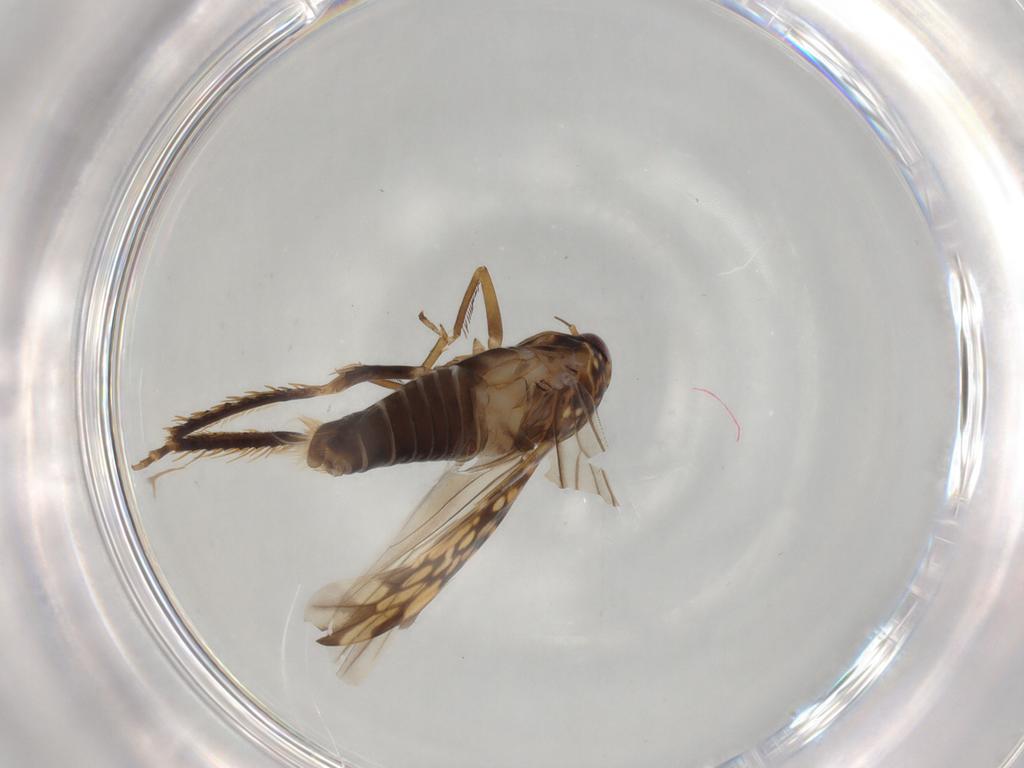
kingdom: Animalia
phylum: Arthropoda
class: Insecta
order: Hemiptera
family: Cicadellidae
